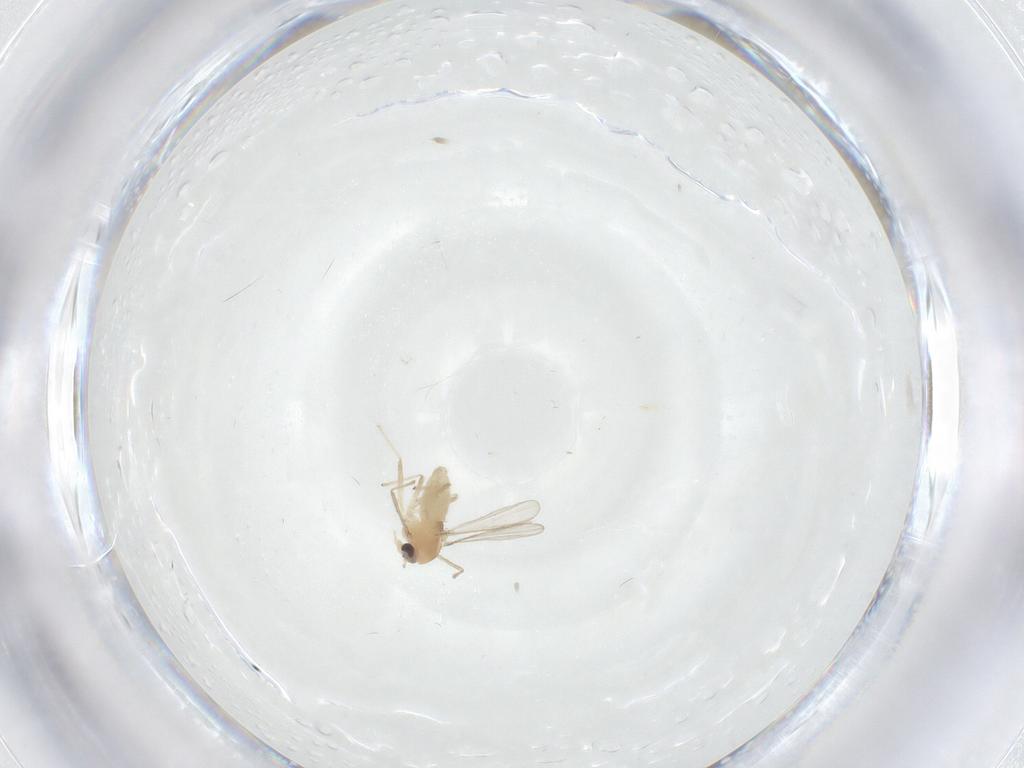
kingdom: Animalia
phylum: Arthropoda
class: Insecta
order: Diptera
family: Chironomidae
